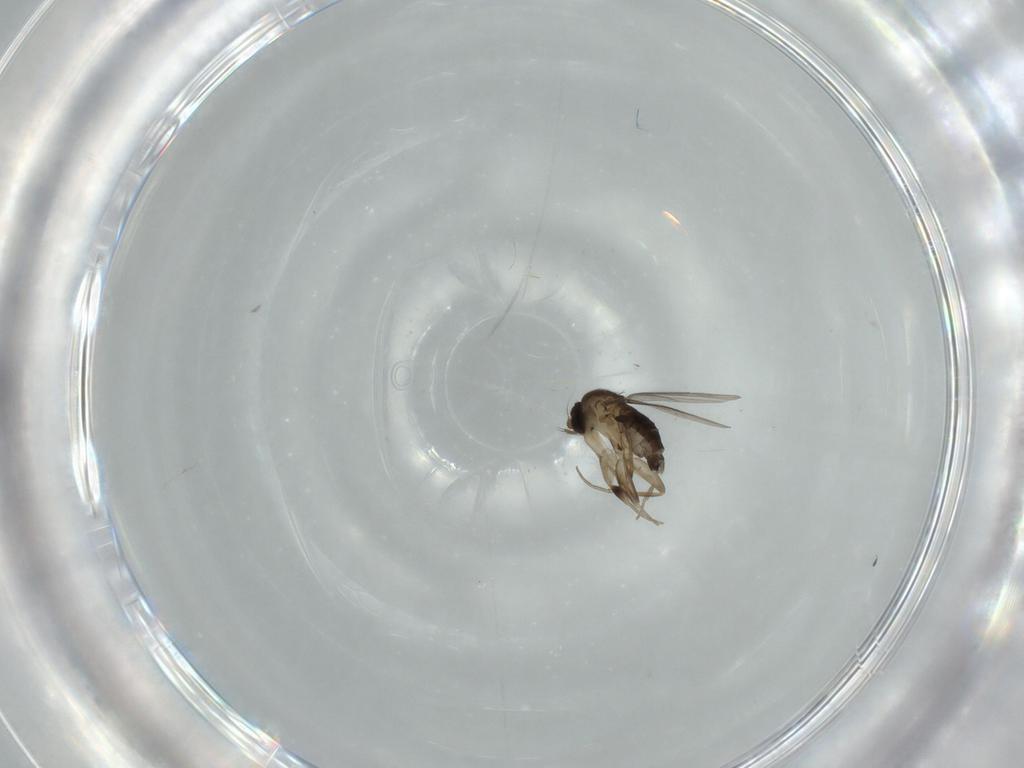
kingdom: Animalia
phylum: Arthropoda
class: Insecta
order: Diptera
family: Phoridae
